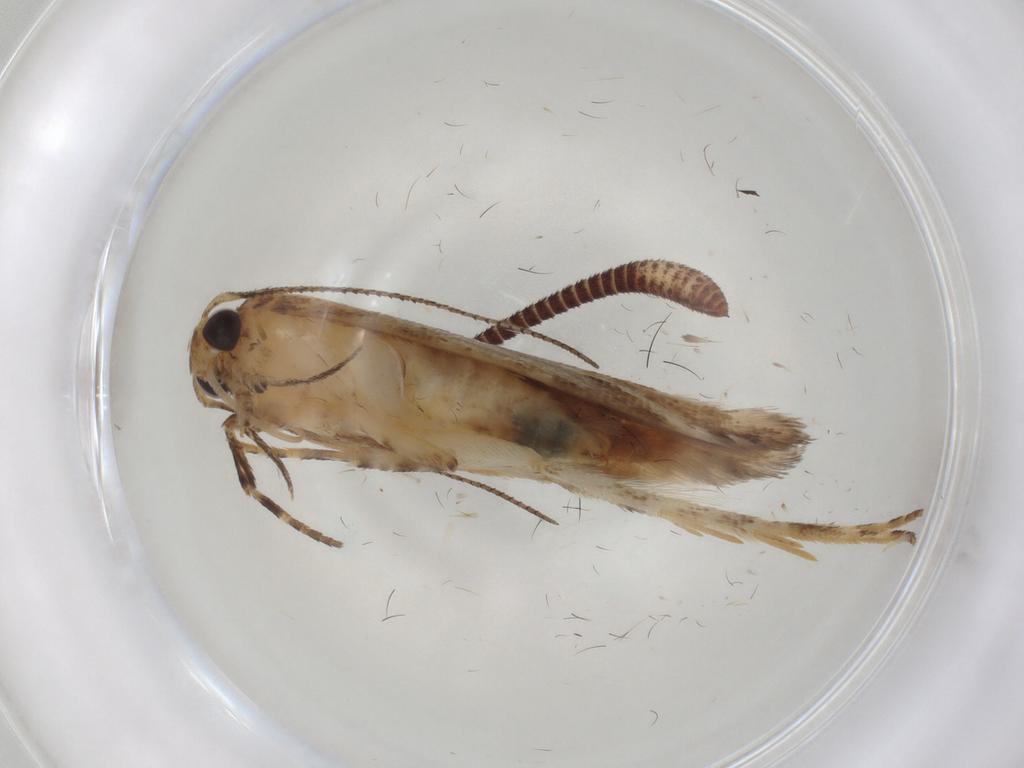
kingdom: Animalia
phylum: Arthropoda
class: Insecta
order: Lepidoptera
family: Gelechiidae
